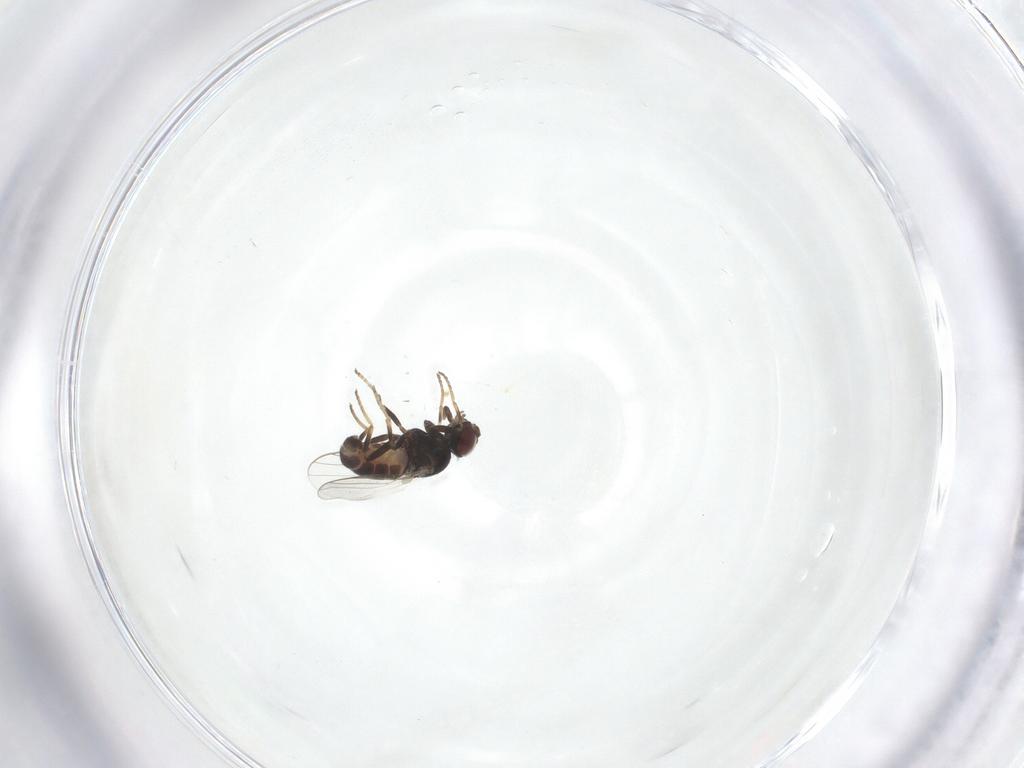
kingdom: Animalia
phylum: Arthropoda
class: Insecta
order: Diptera
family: Chloropidae
